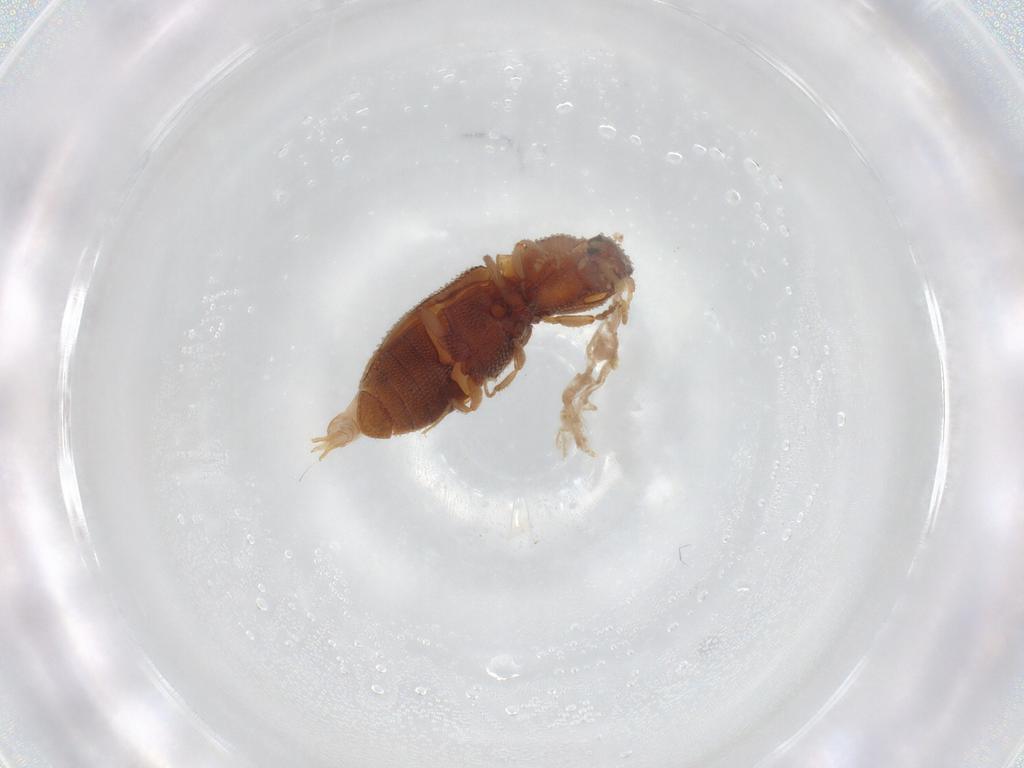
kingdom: Animalia
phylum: Arthropoda
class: Insecta
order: Coleoptera
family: Elateridae
